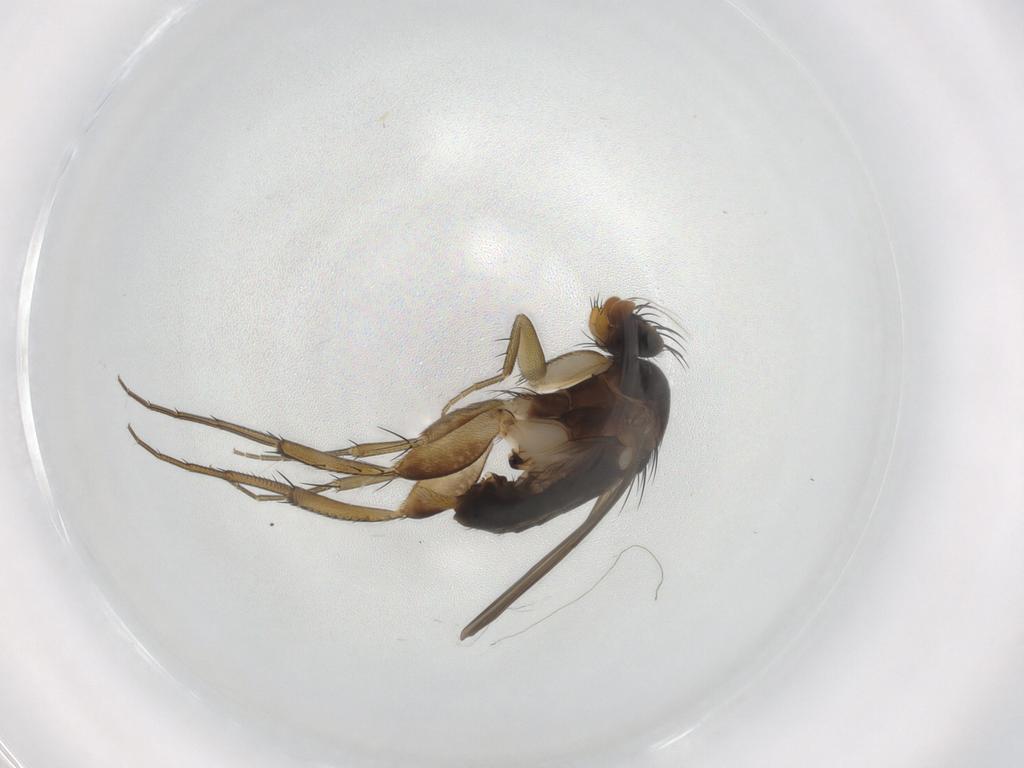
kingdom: Animalia
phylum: Arthropoda
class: Insecta
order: Diptera
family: Phoridae
